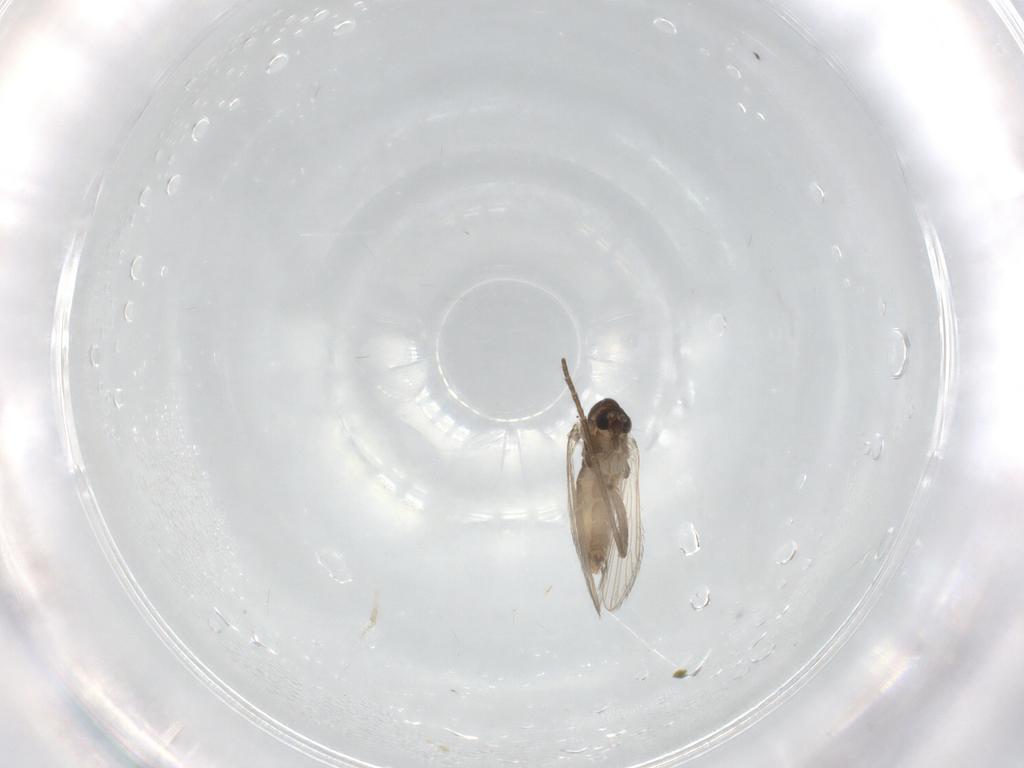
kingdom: Animalia
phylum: Arthropoda
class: Insecta
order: Diptera
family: Psychodidae
